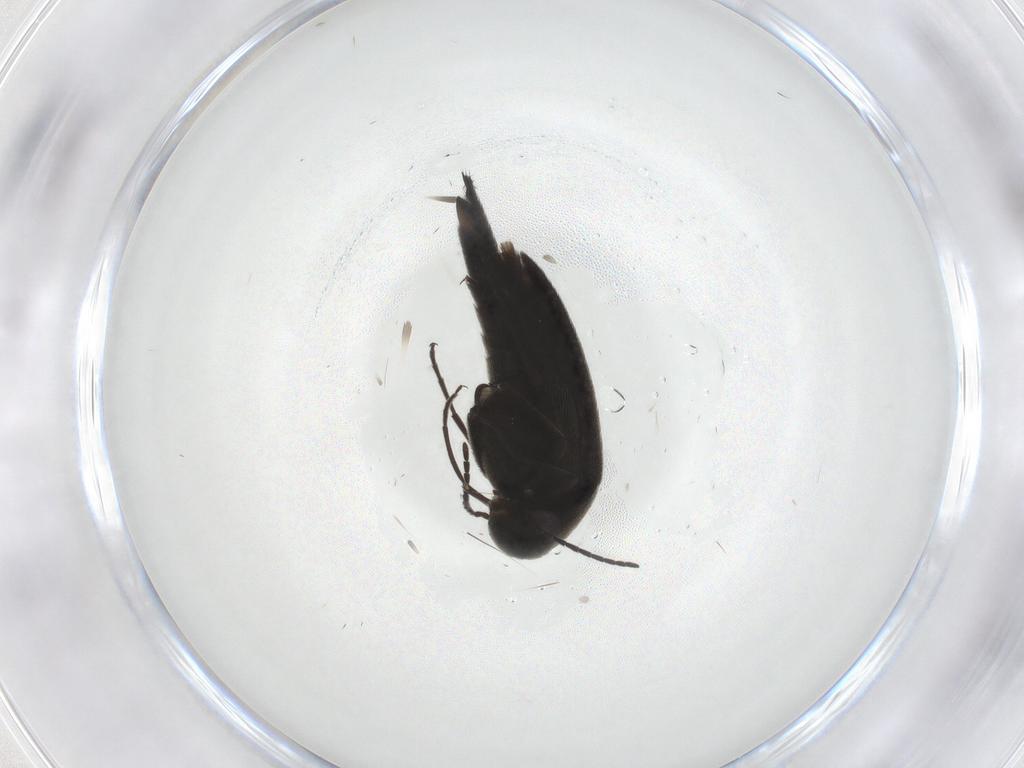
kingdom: Animalia
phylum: Arthropoda
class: Insecta
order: Coleoptera
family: Mordellidae
